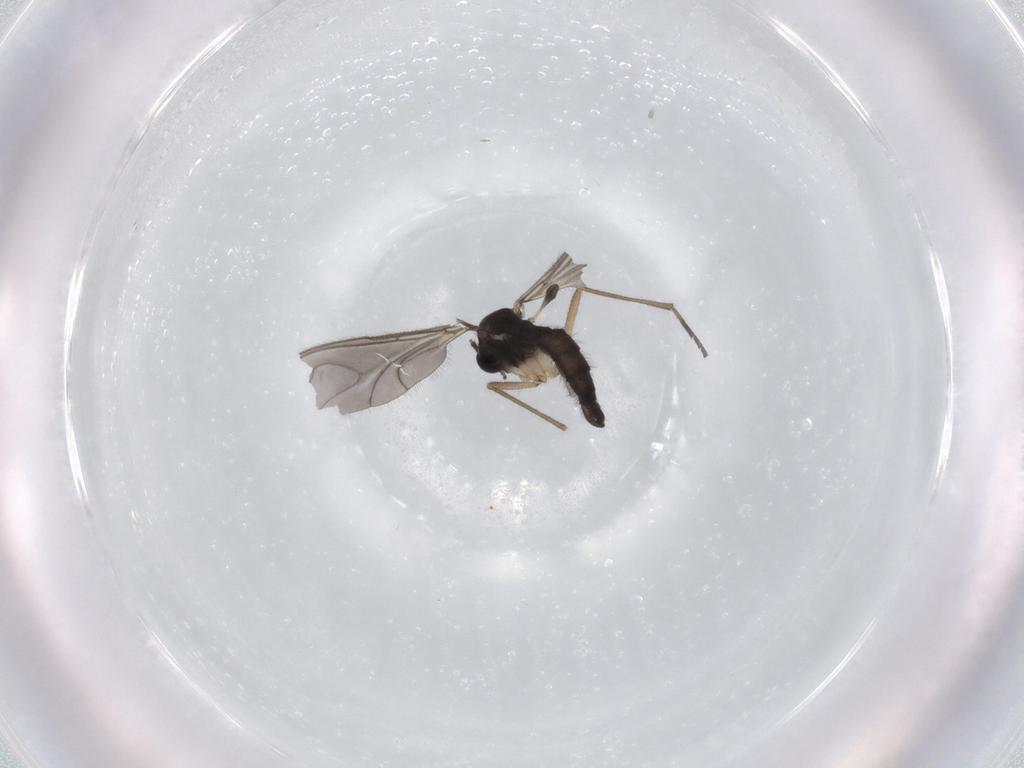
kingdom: Animalia
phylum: Arthropoda
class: Insecta
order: Diptera
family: Sciaridae
